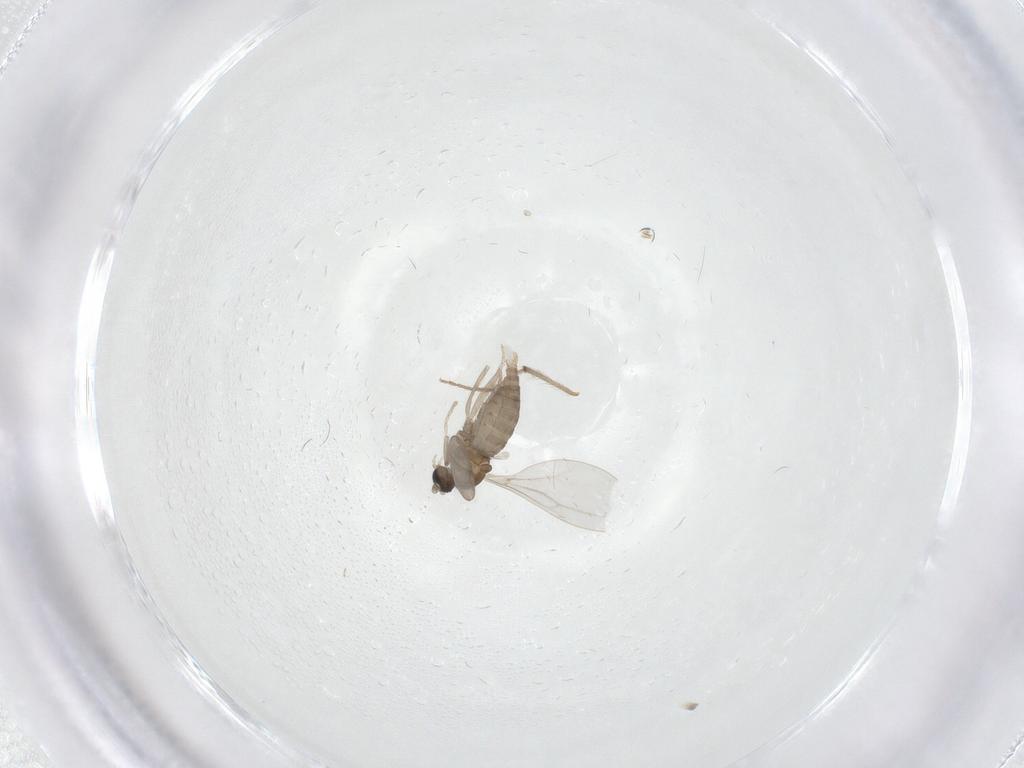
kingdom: Animalia
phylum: Arthropoda
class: Insecta
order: Diptera
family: Cecidomyiidae
